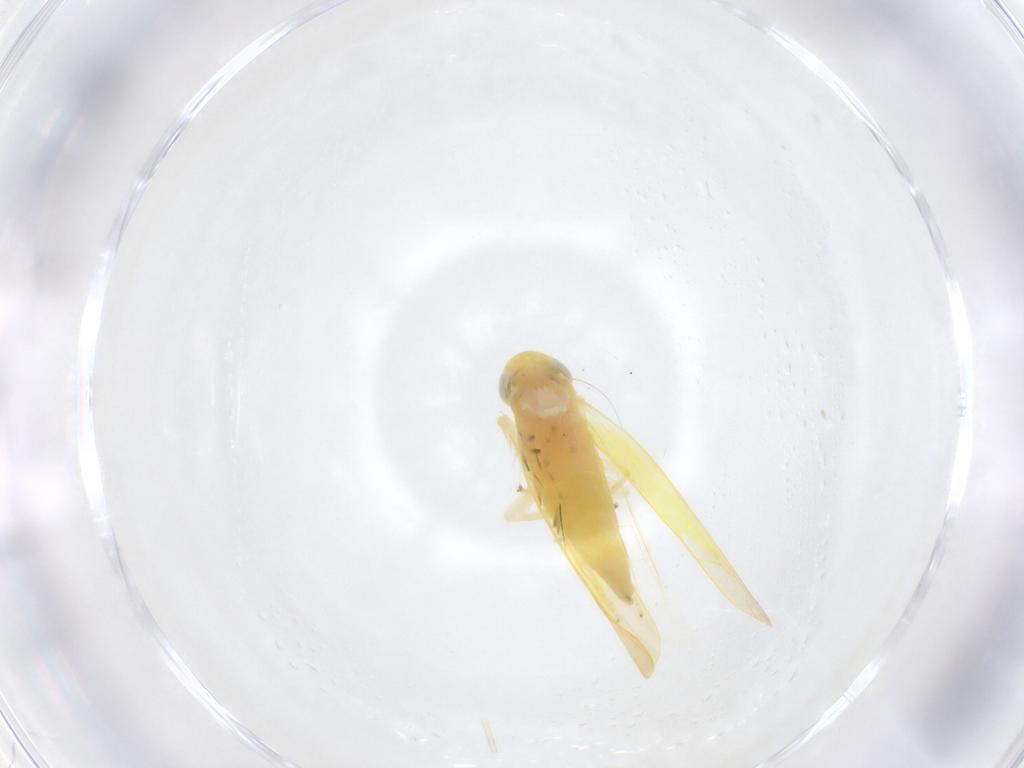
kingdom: Animalia
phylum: Arthropoda
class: Insecta
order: Hemiptera
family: Cicadellidae
